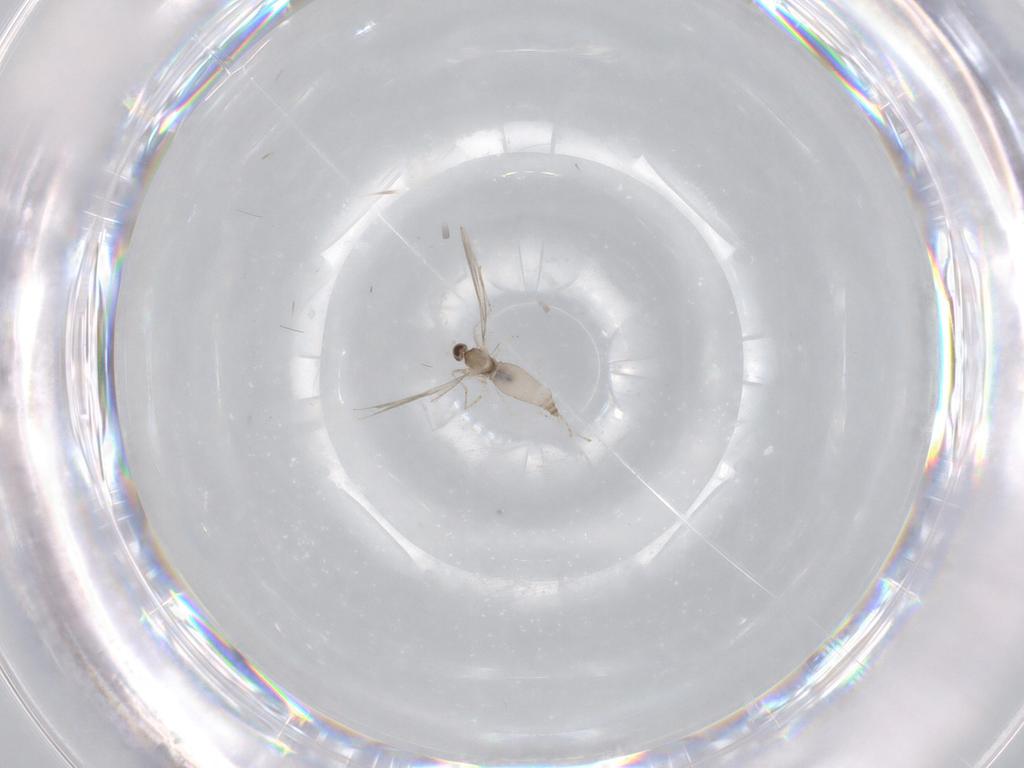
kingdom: Animalia
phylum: Arthropoda
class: Insecta
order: Diptera
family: Cecidomyiidae
